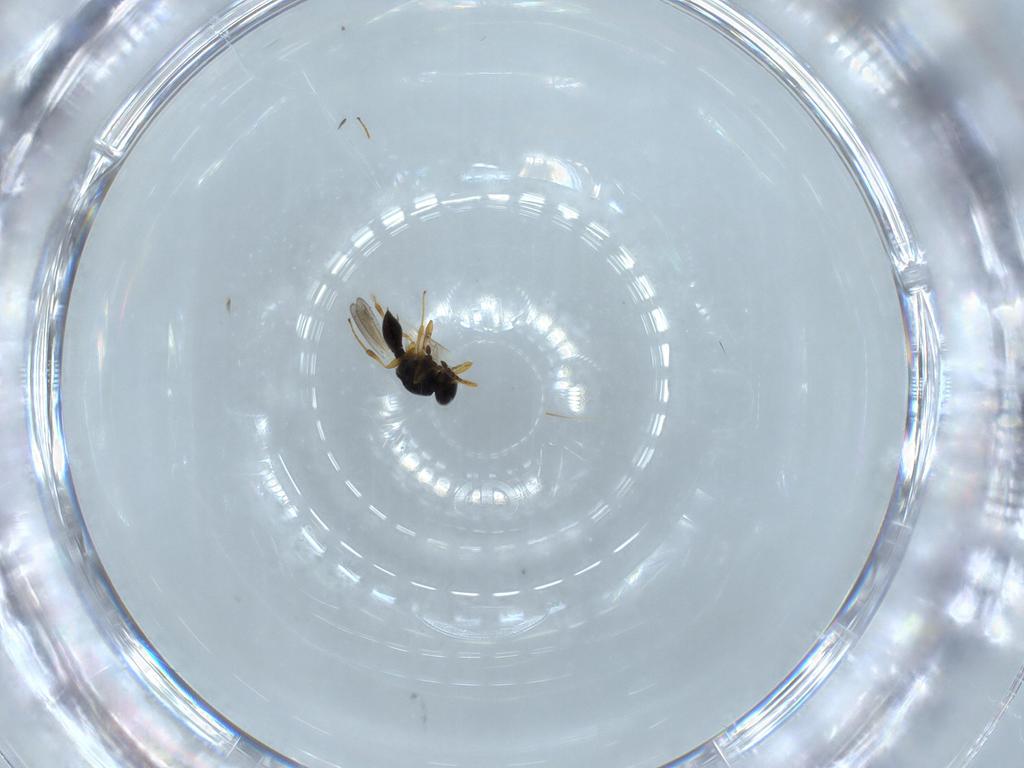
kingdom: Animalia
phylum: Arthropoda
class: Insecta
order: Hymenoptera
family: Platygastridae
